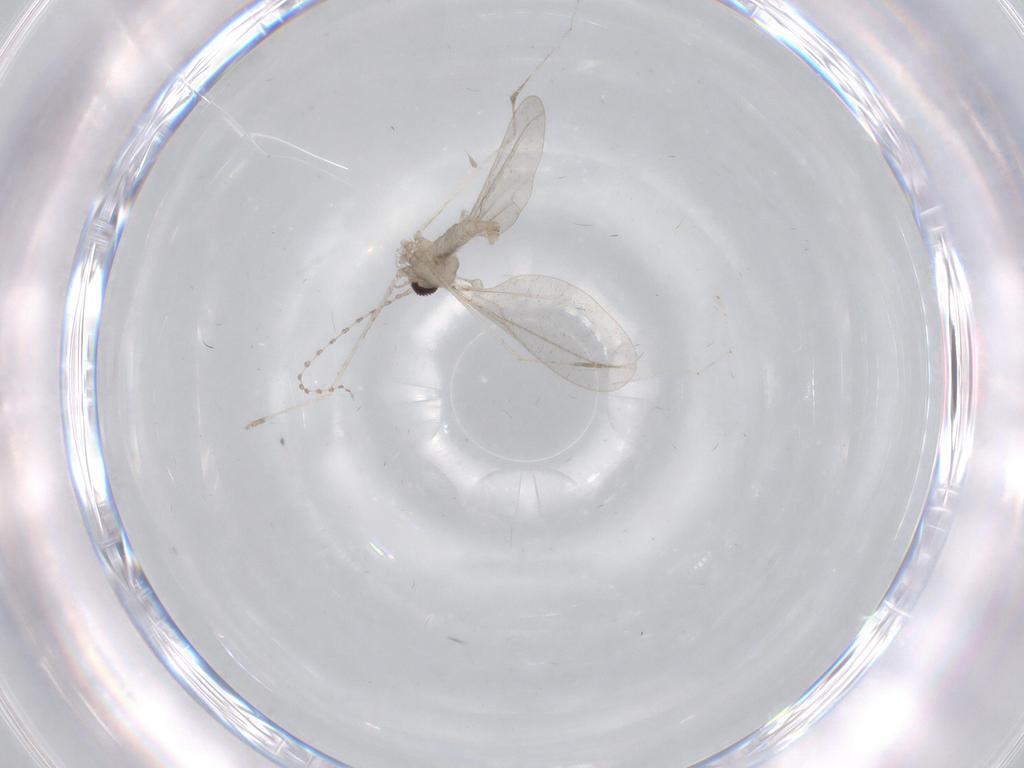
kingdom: Animalia
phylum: Arthropoda
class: Insecta
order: Diptera
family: Cecidomyiidae
